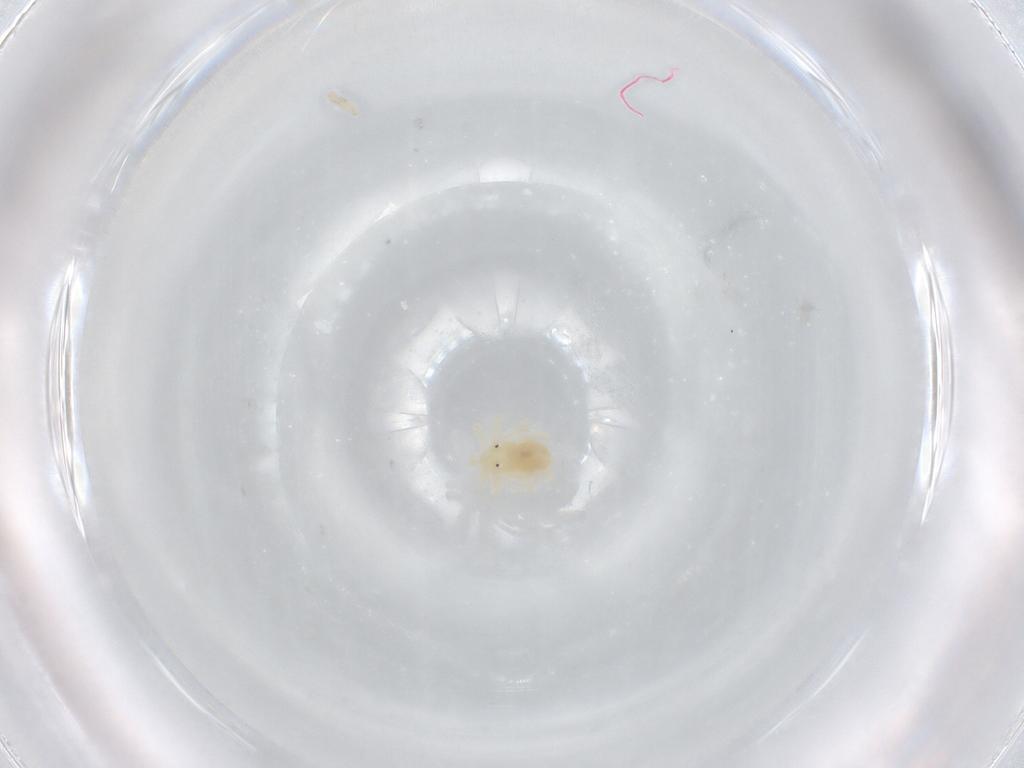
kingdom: Animalia
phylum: Arthropoda
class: Arachnida
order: Trombidiformes
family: Anystidae
